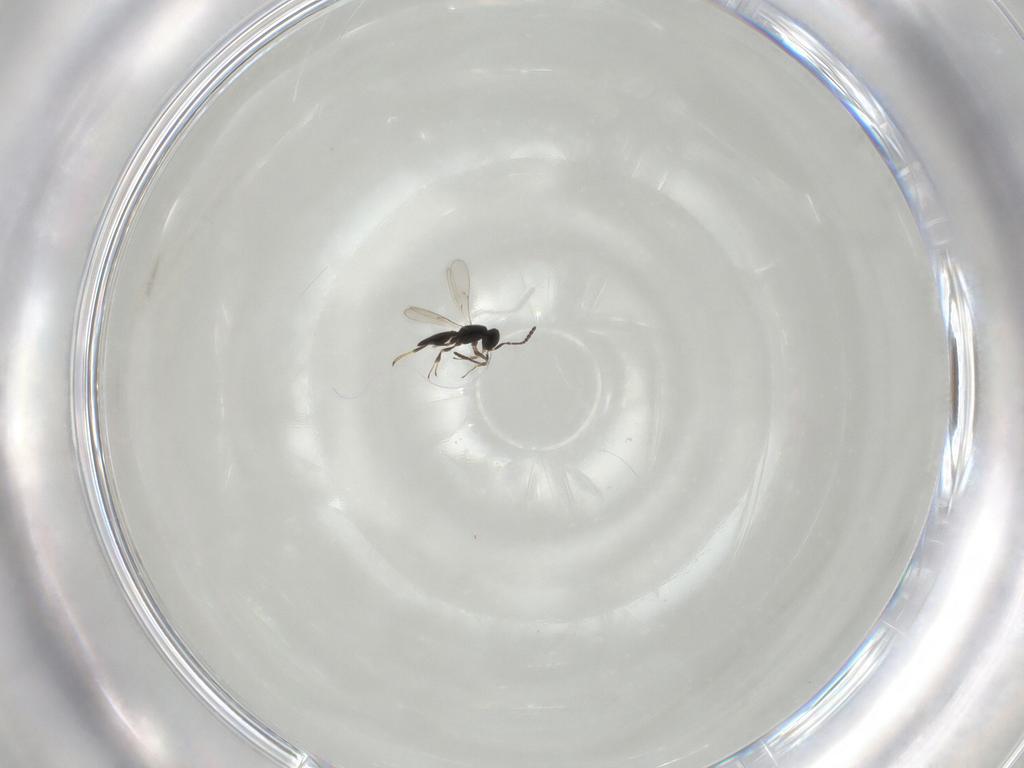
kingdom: Animalia
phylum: Arthropoda
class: Insecta
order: Hymenoptera
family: Scelionidae
